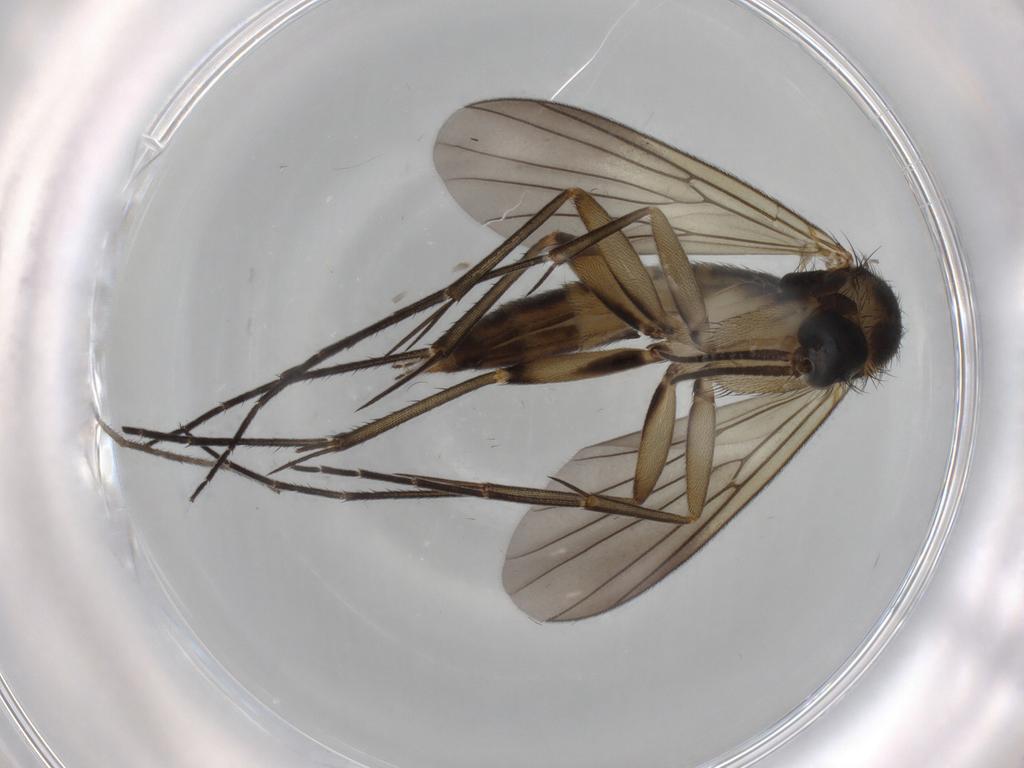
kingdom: Animalia
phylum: Arthropoda
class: Insecta
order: Diptera
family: Mycetophilidae
